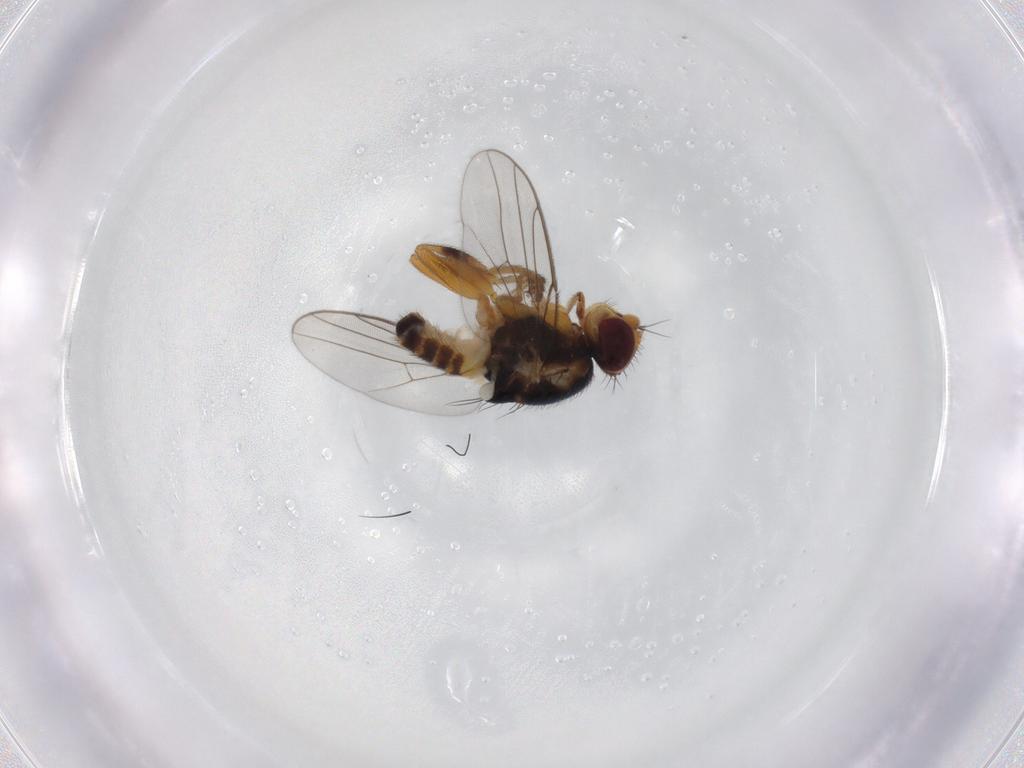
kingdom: Animalia
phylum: Arthropoda
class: Insecta
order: Diptera
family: Chloropidae
